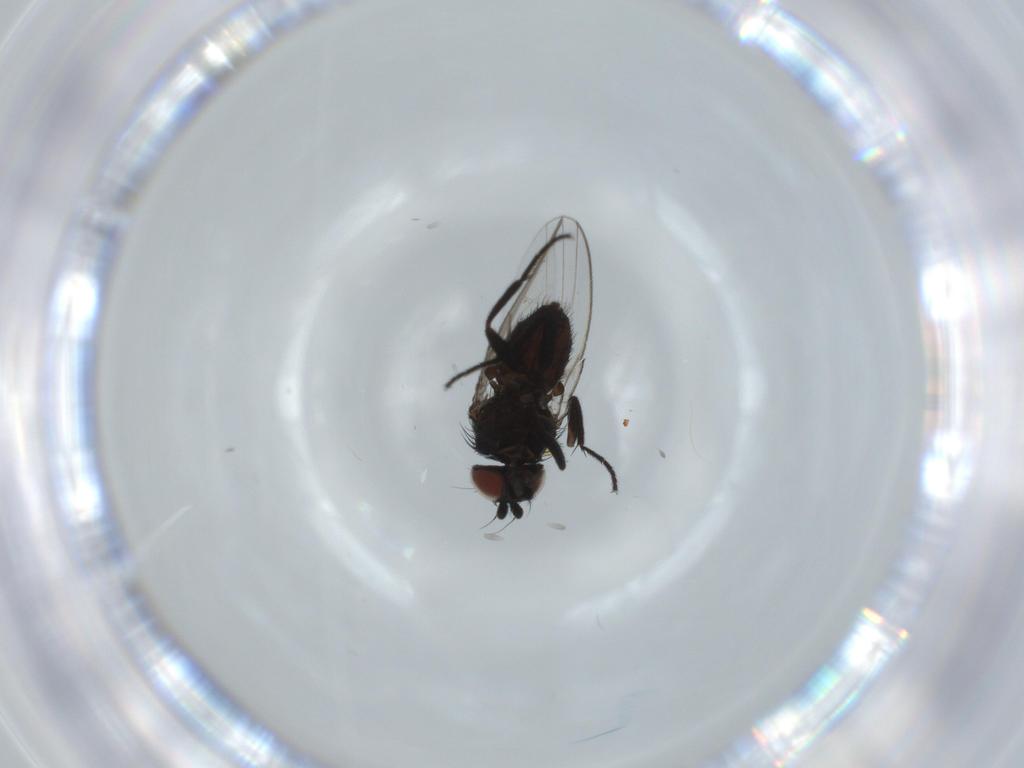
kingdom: Animalia
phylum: Arthropoda
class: Insecta
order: Diptera
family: Milichiidae
